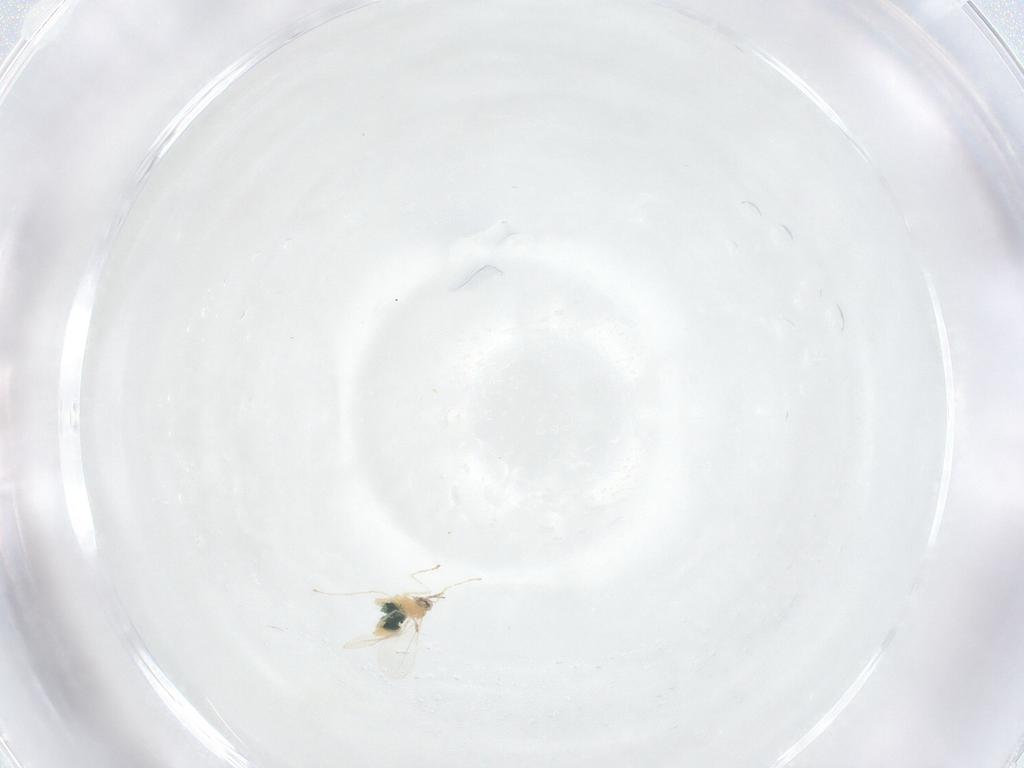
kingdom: Animalia
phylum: Arthropoda
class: Insecta
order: Diptera
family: Cecidomyiidae
